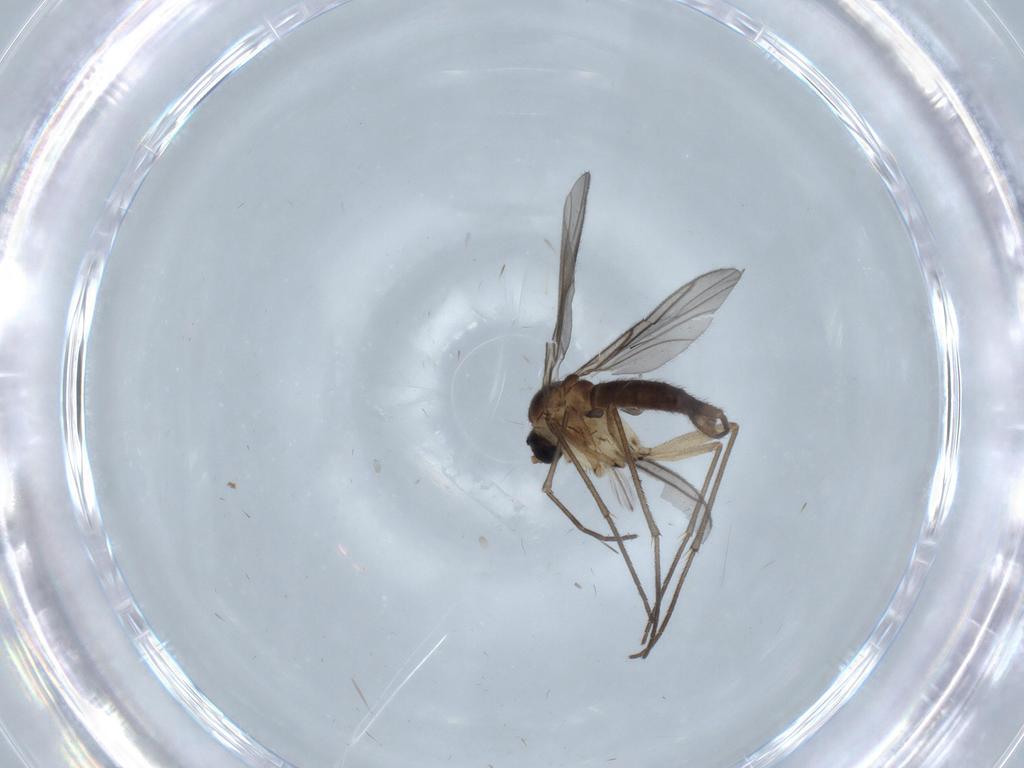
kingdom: Animalia
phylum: Arthropoda
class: Insecta
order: Diptera
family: Sciaridae
